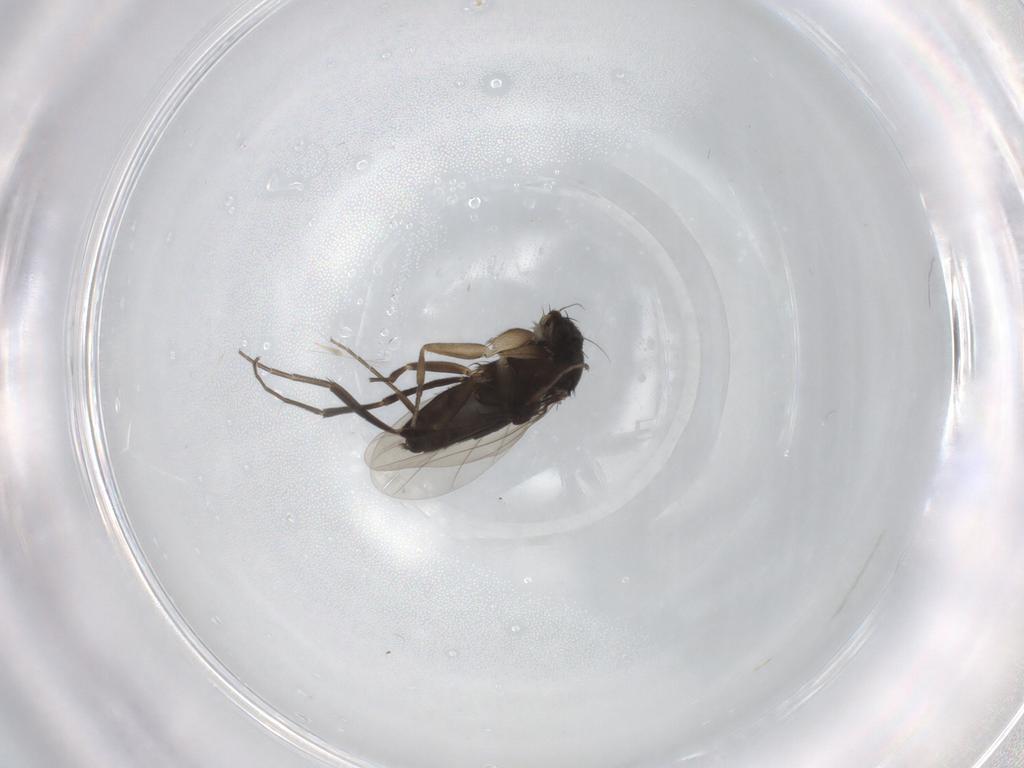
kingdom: Animalia
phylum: Arthropoda
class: Insecta
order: Diptera
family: Phoridae
